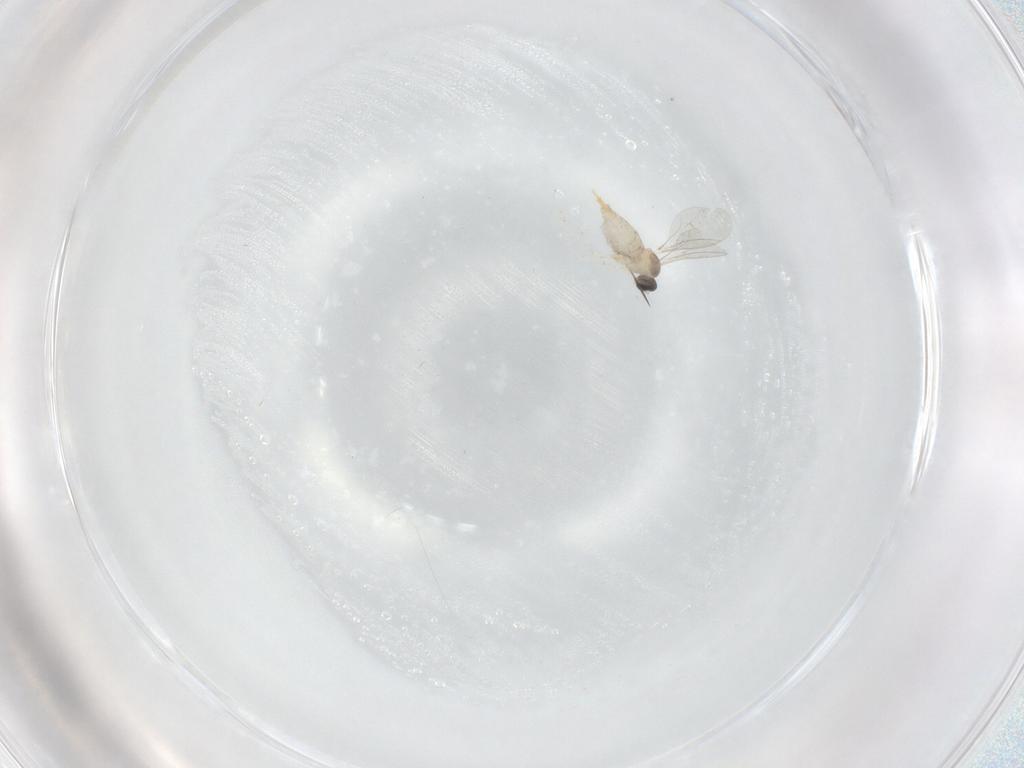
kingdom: Animalia
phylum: Arthropoda
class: Insecta
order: Diptera
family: Cecidomyiidae
